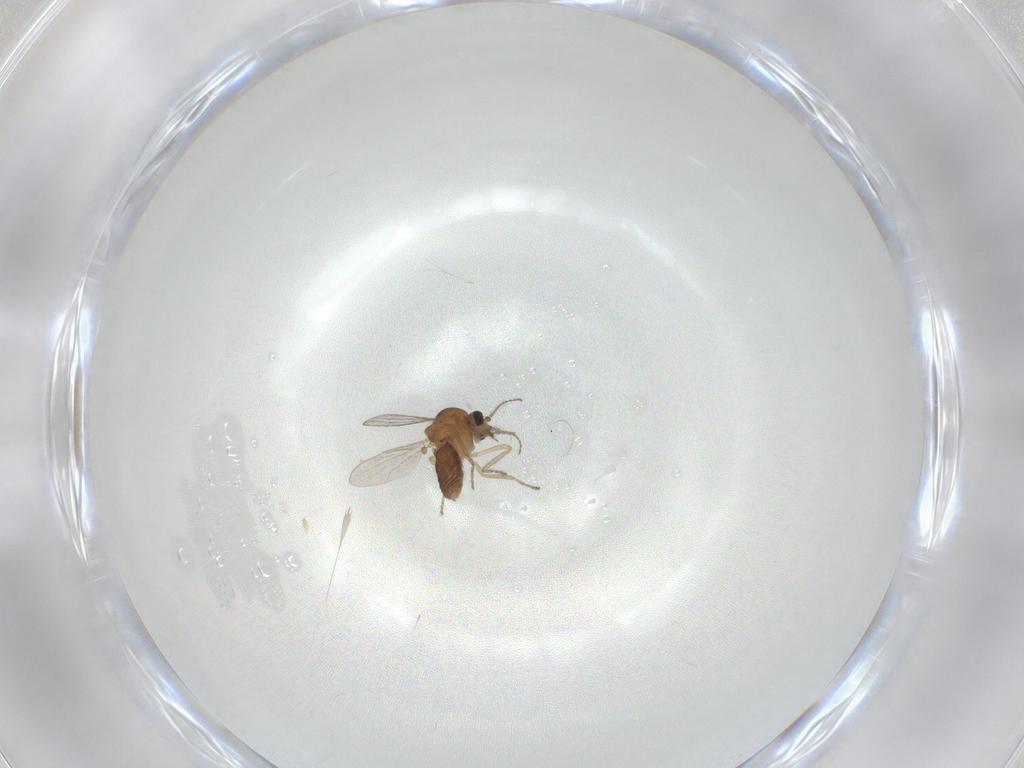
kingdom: Animalia
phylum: Arthropoda
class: Insecta
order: Diptera
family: Ceratopogonidae
